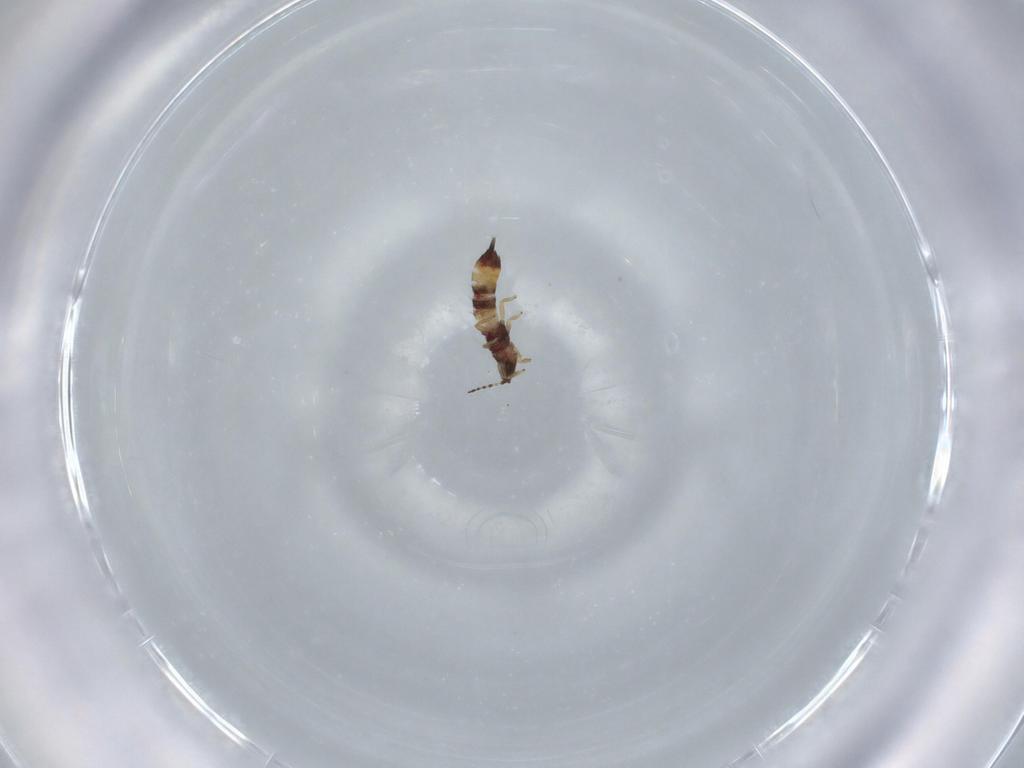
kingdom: Animalia
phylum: Arthropoda
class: Insecta
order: Thysanoptera
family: Phlaeothripidae
